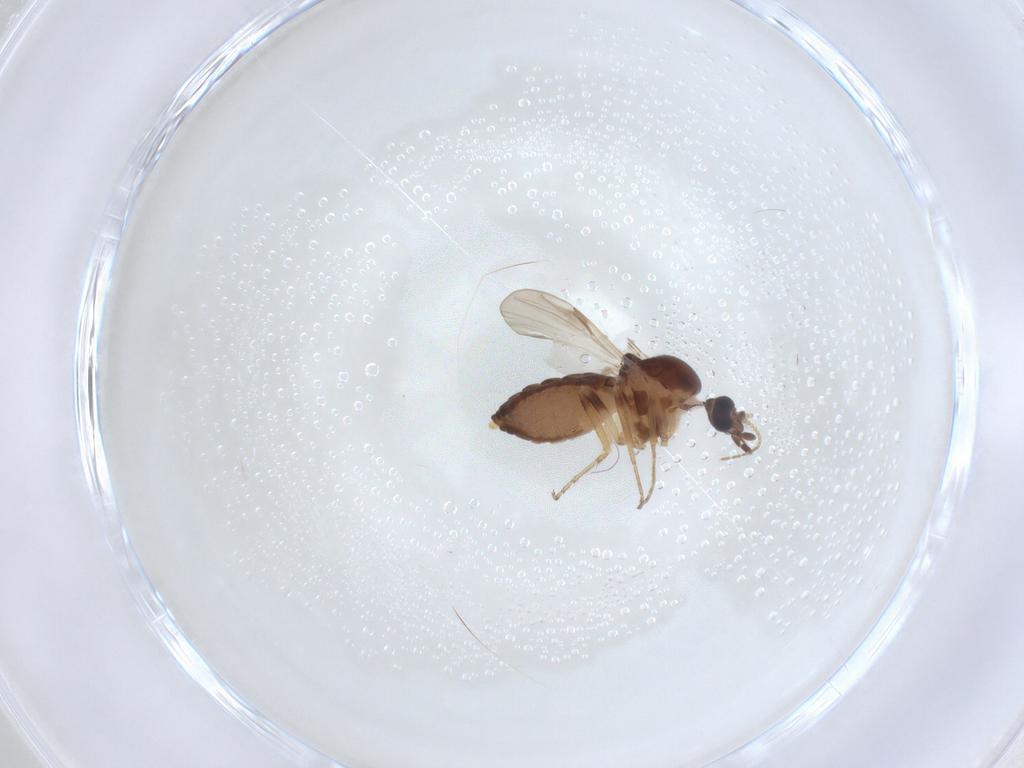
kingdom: Animalia
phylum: Arthropoda
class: Insecta
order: Diptera
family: Ceratopogonidae
